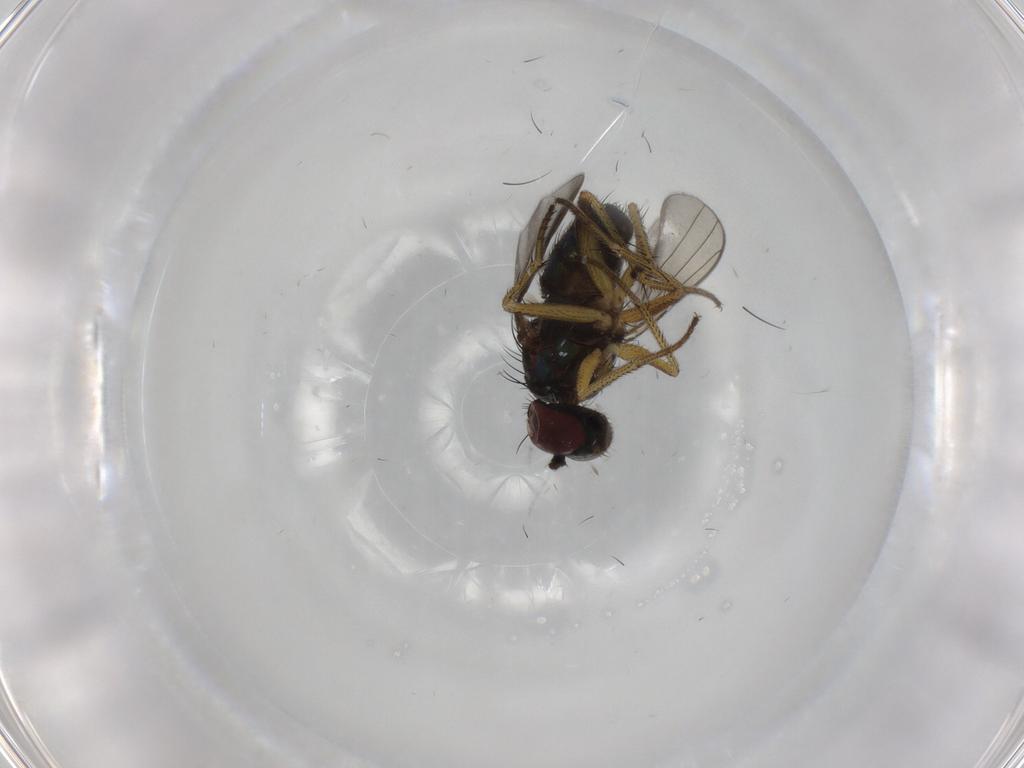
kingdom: Animalia
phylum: Arthropoda
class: Insecta
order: Diptera
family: Dolichopodidae
